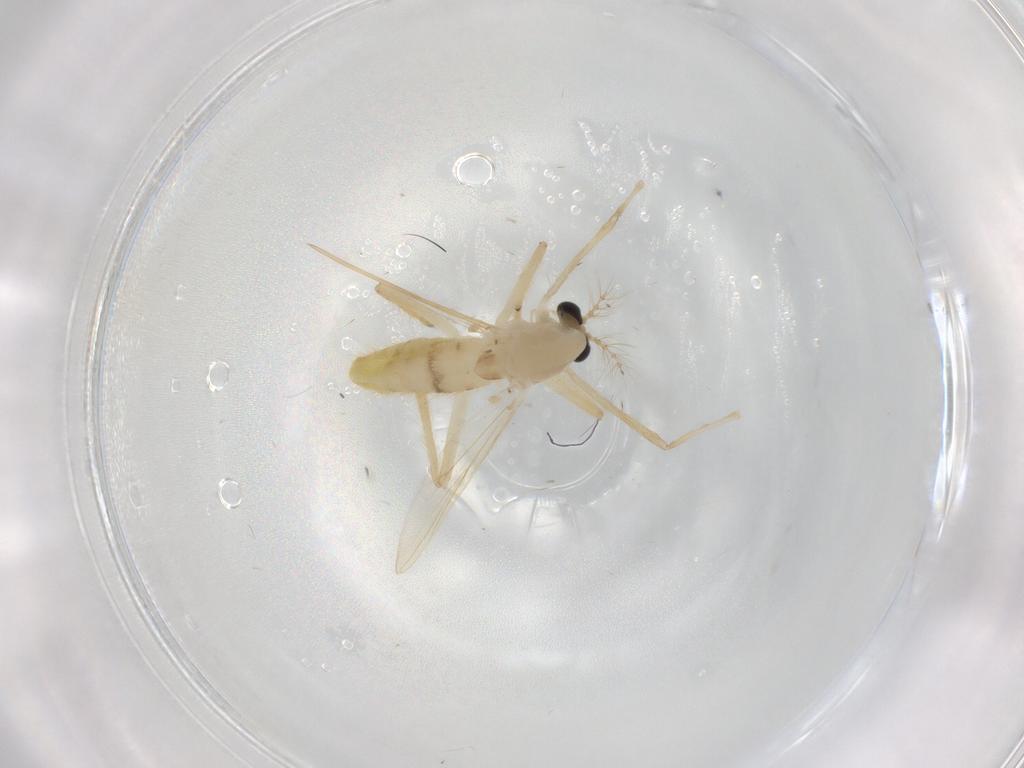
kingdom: Animalia
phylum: Arthropoda
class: Insecta
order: Diptera
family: Chironomidae
